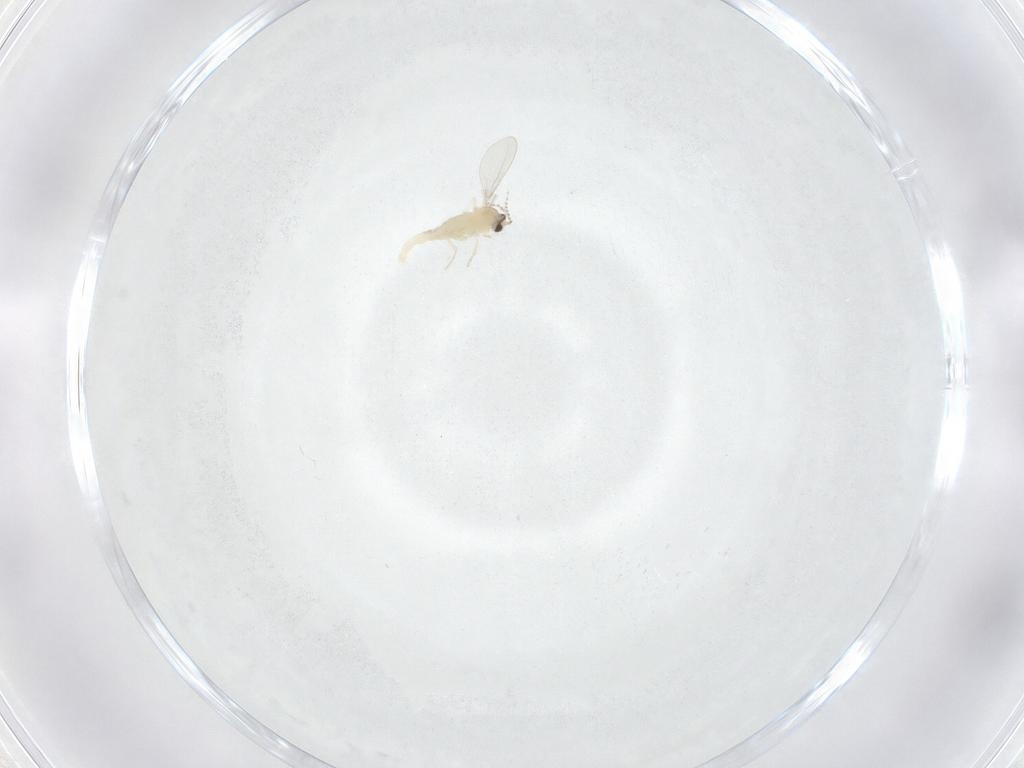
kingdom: Animalia
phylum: Arthropoda
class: Insecta
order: Diptera
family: Cecidomyiidae
